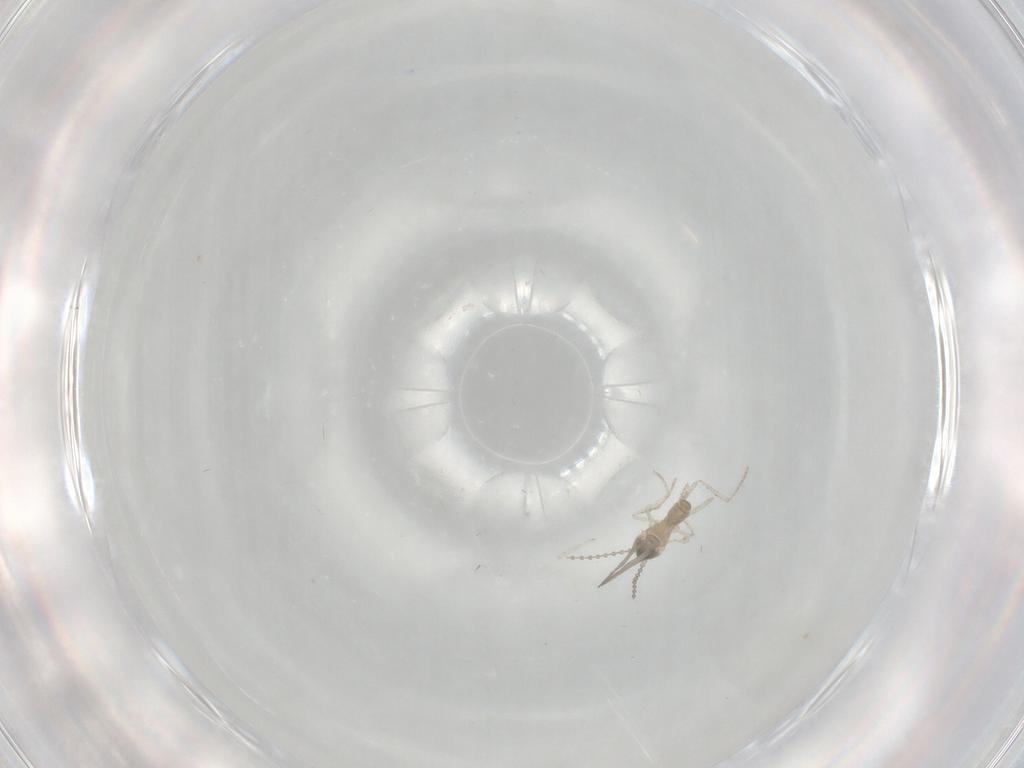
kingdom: Animalia
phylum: Arthropoda
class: Insecta
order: Diptera
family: Cecidomyiidae
